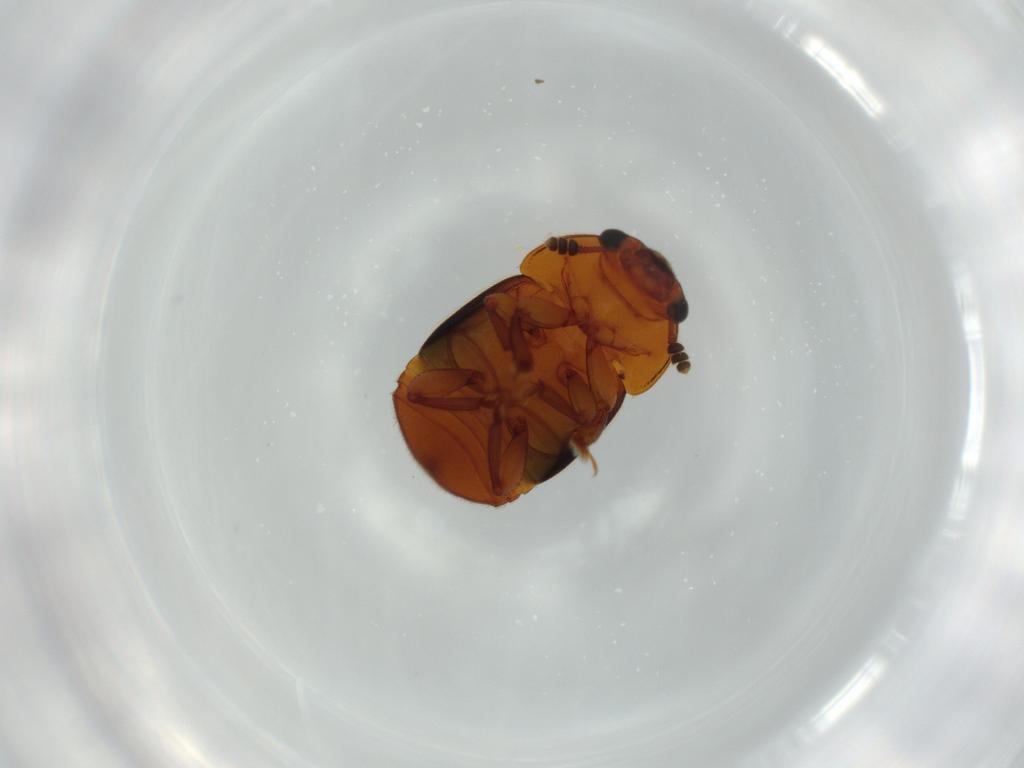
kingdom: Animalia
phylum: Arthropoda
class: Insecta
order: Coleoptera
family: Nitidulidae
